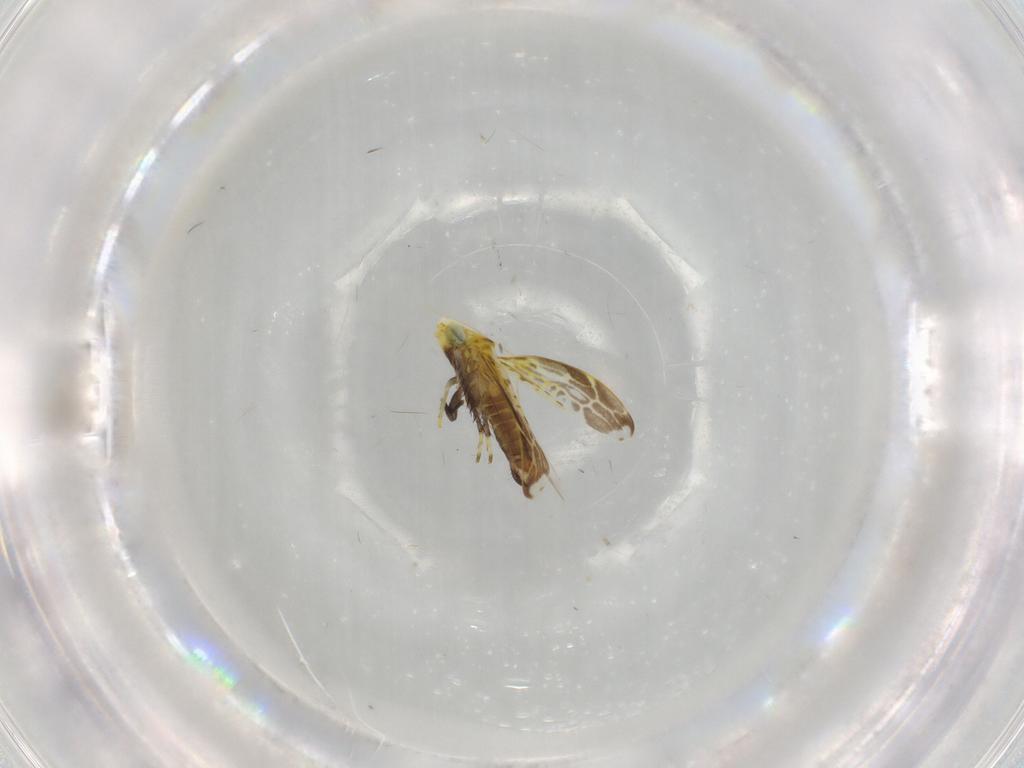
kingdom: Animalia
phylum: Arthropoda
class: Insecta
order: Hemiptera
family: Cicadellidae
